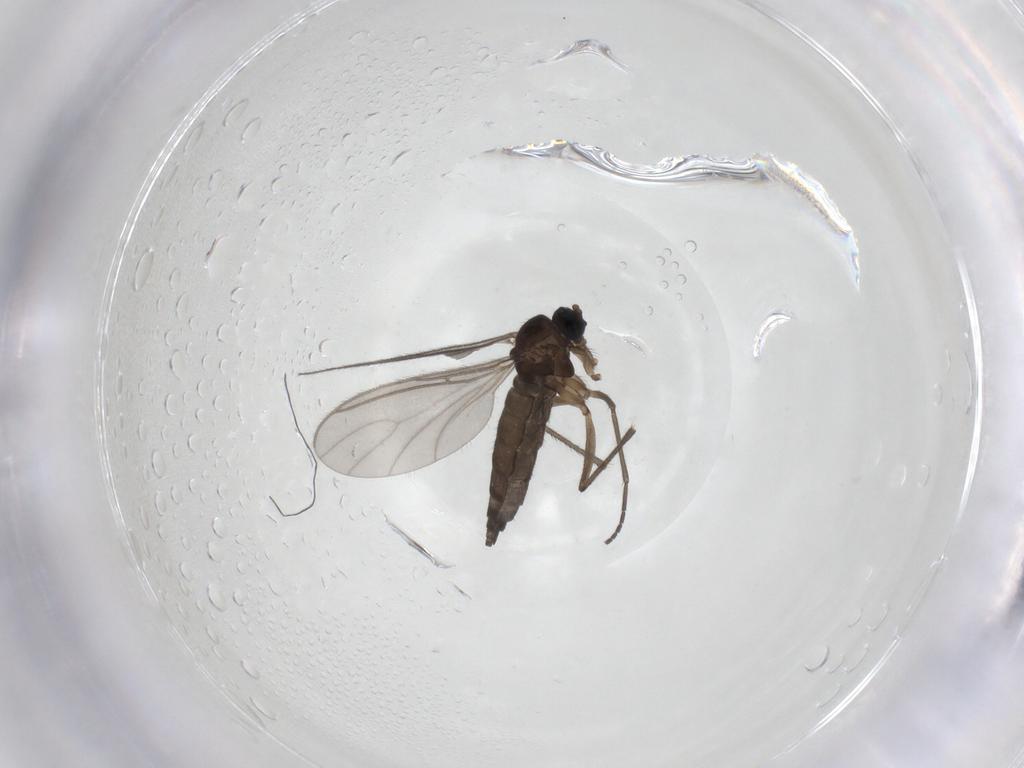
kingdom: Animalia
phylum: Arthropoda
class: Insecta
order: Diptera
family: Sciaridae
